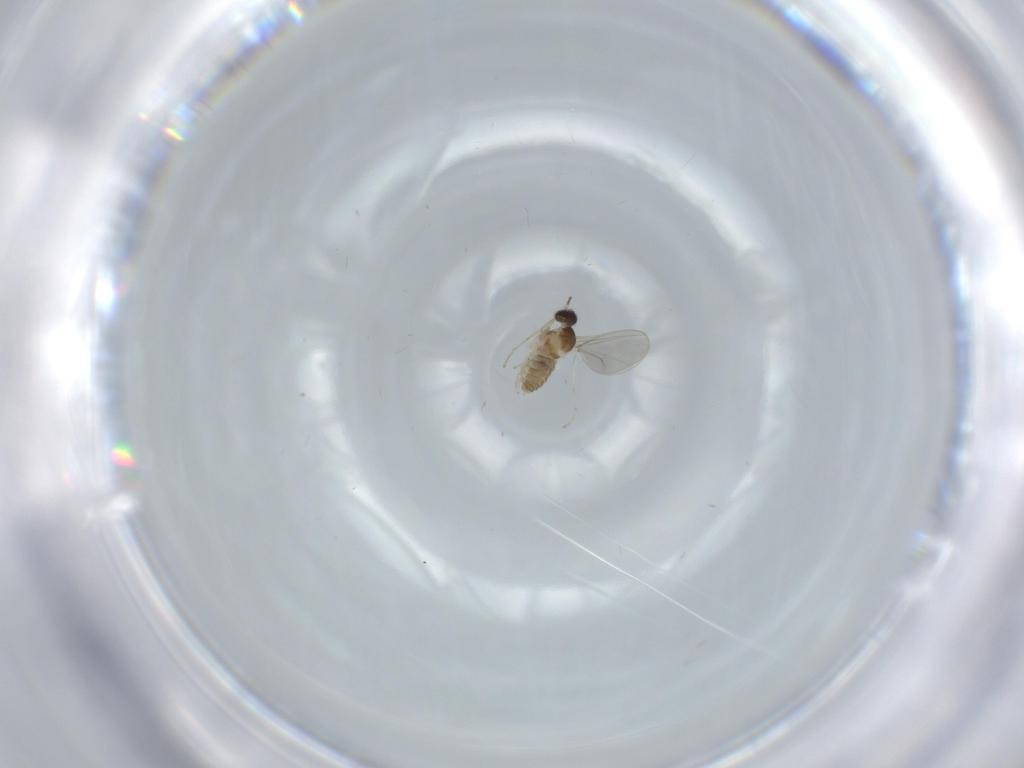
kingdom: Animalia
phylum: Arthropoda
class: Insecta
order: Diptera
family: Cecidomyiidae
